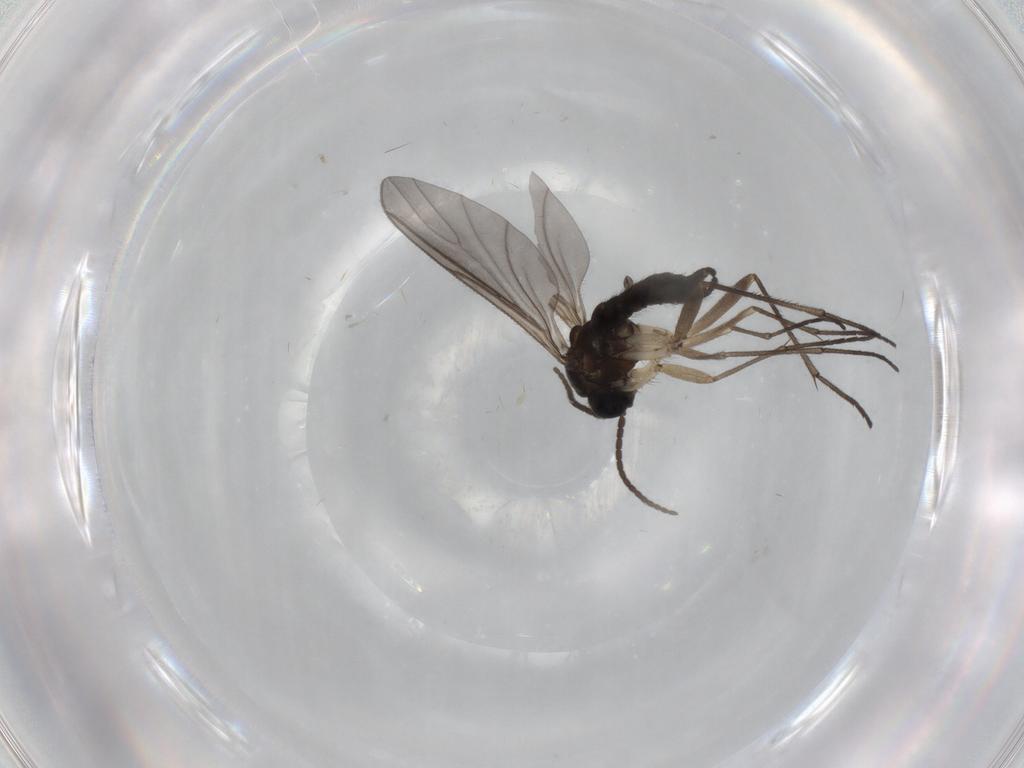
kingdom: Animalia
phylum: Arthropoda
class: Insecta
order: Diptera
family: Sciaridae
